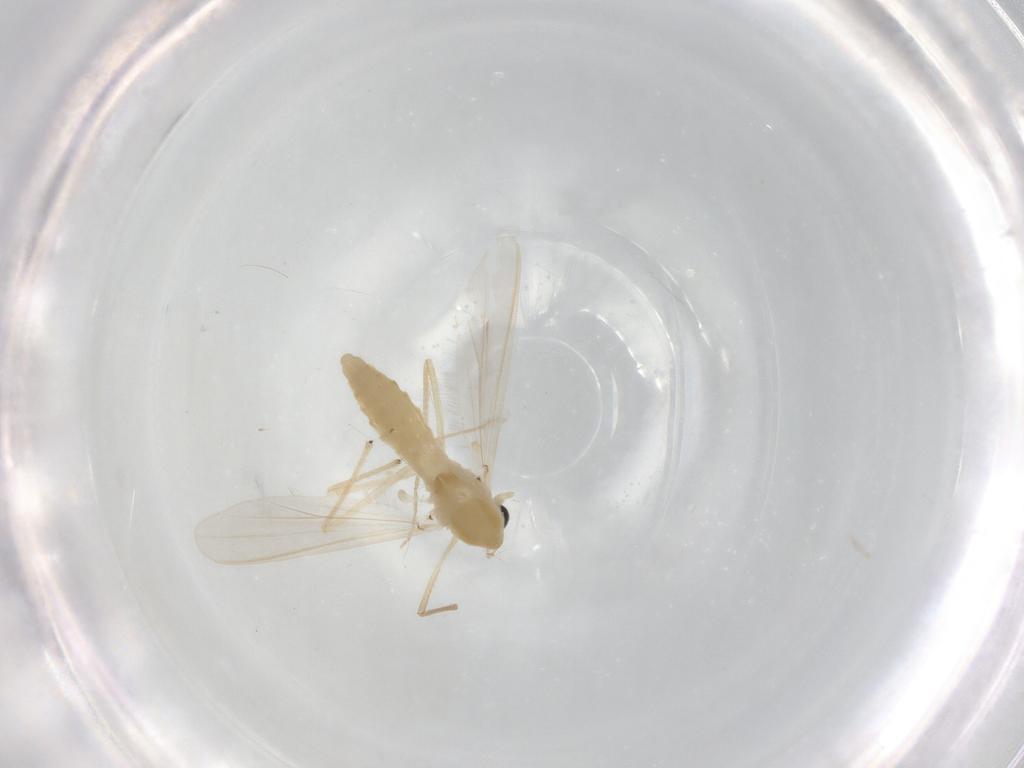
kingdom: Animalia
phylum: Arthropoda
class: Insecta
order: Diptera
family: Chironomidae
